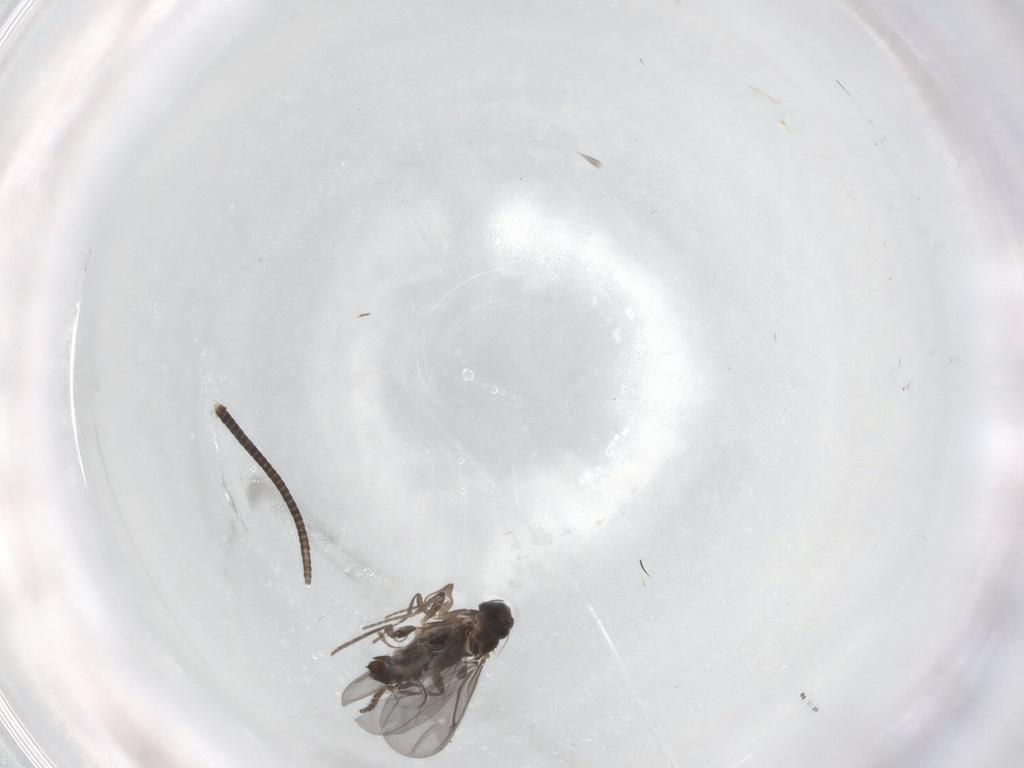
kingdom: Animalia
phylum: Arthropoda
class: Insecta
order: Diptera
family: Phoridae
